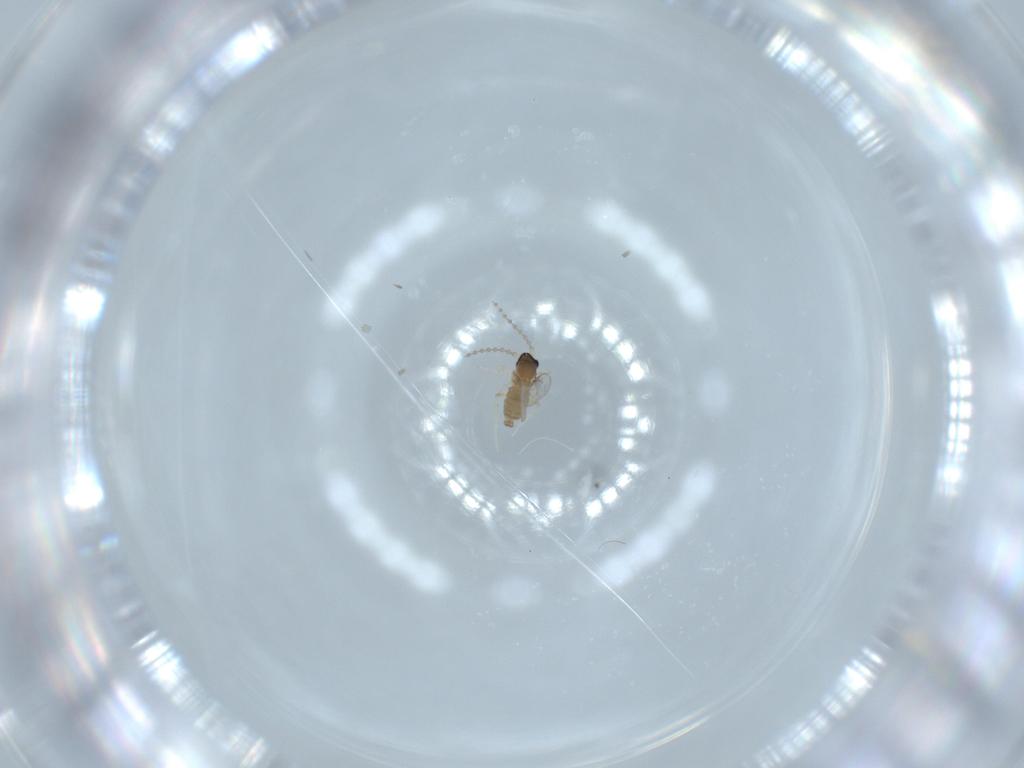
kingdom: Animalia
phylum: Arthropoda
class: Insecta
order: Diptera
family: Cecidomyiidae
